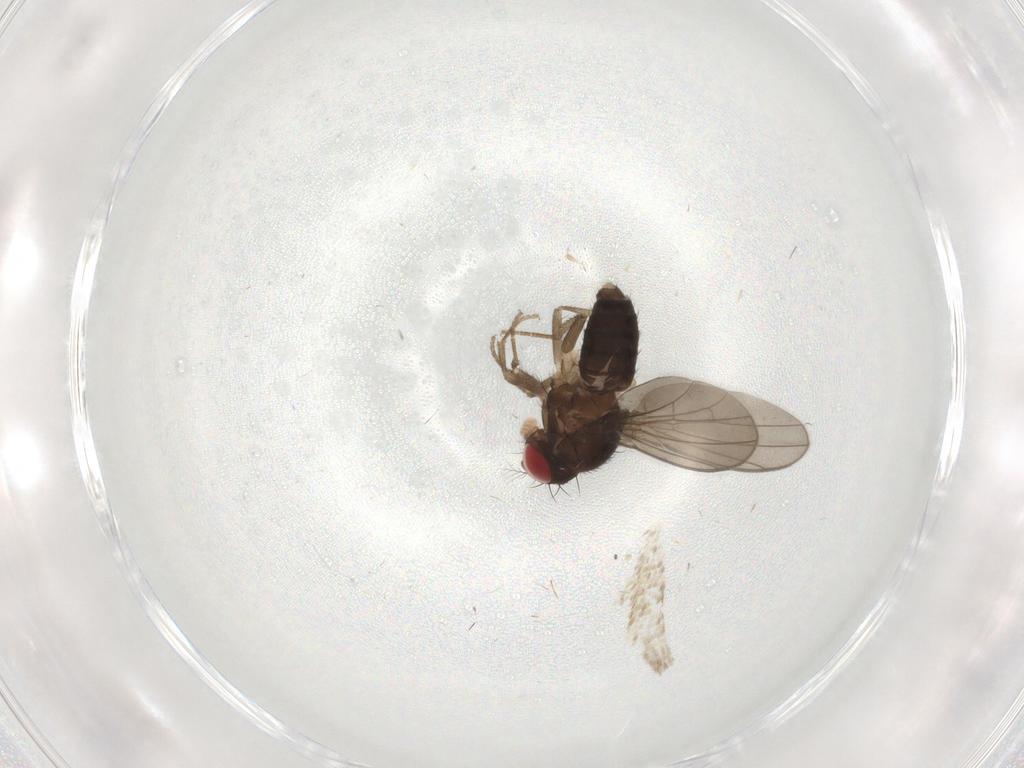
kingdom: Animalia
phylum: Arthropoda
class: Insecta
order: Diptera
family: Drosophilidae
